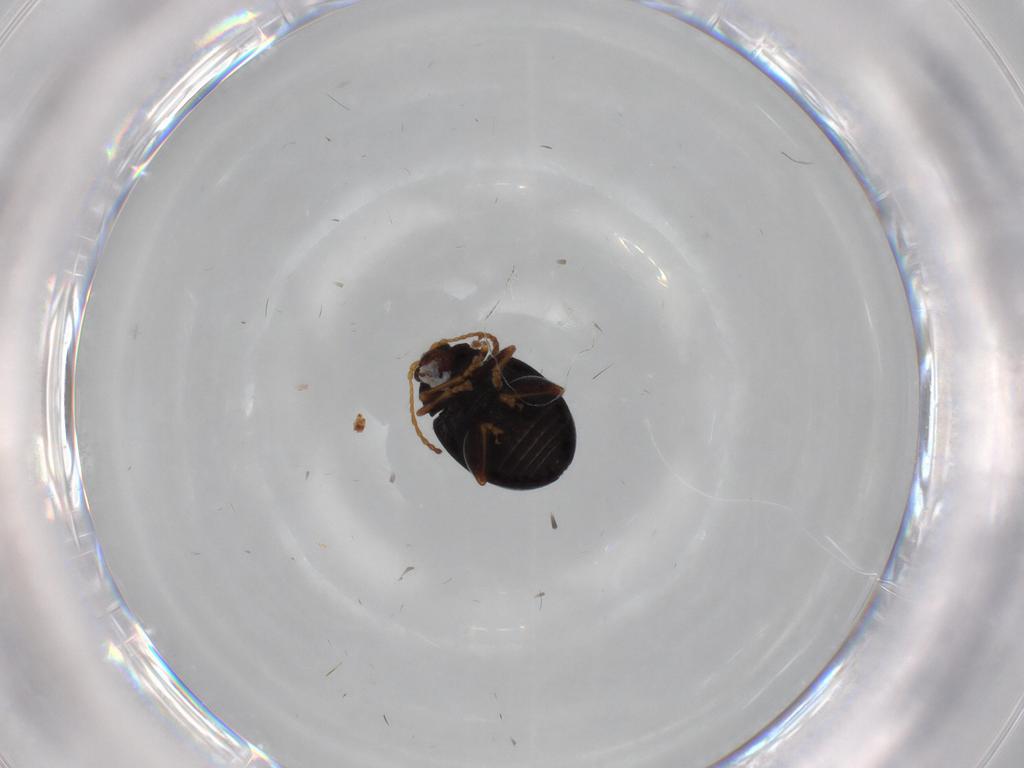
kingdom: Animalia
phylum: Arthropoda
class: Insecta
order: Coleoptera
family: Chrysomelidae
